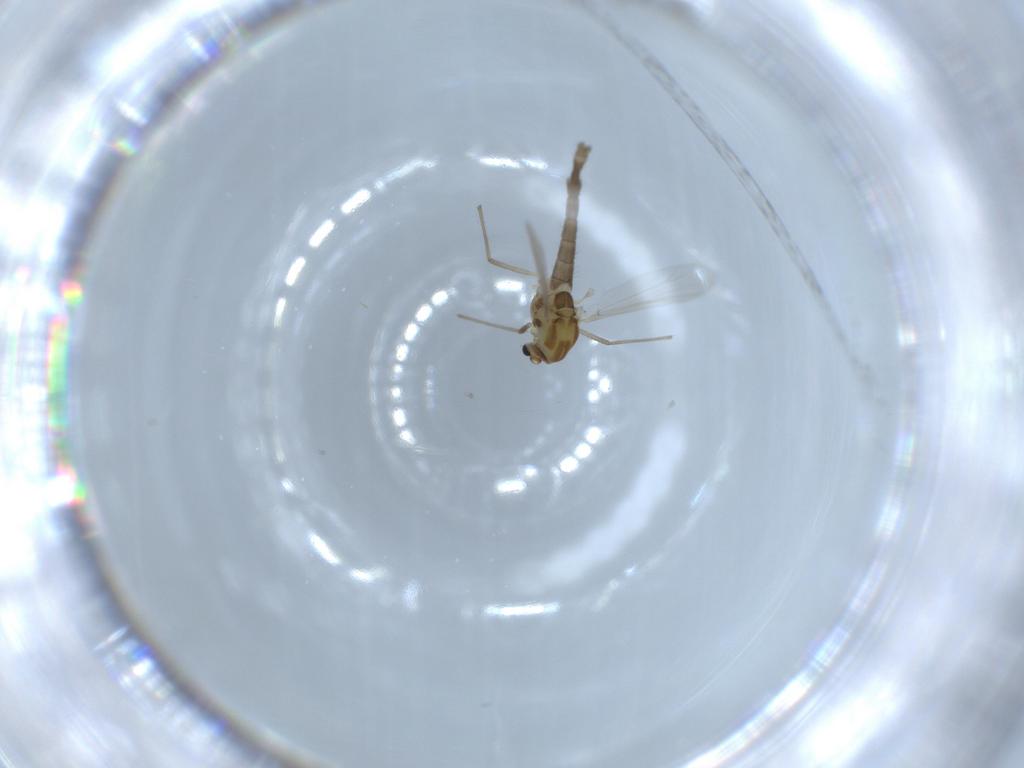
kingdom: Animalia
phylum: Arthropoda
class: Insecta
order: Diptera
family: Chironomidae
